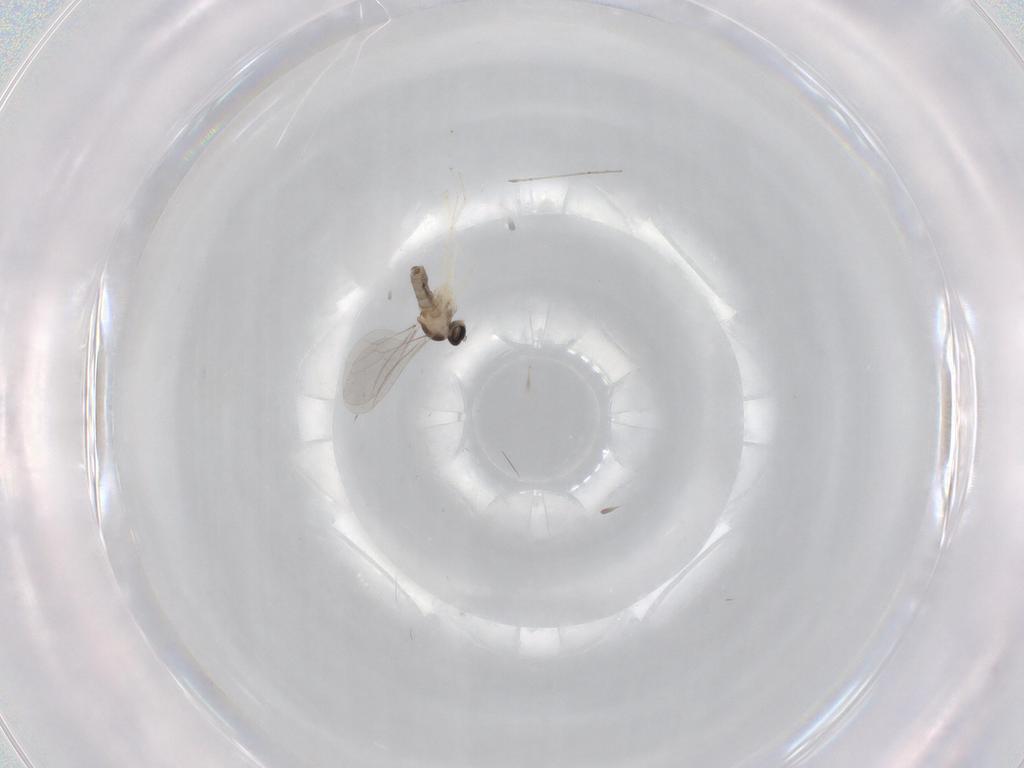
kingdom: Animalia
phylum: Arthropoda
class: Insecta
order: Diptera
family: Cecidomyiidae
